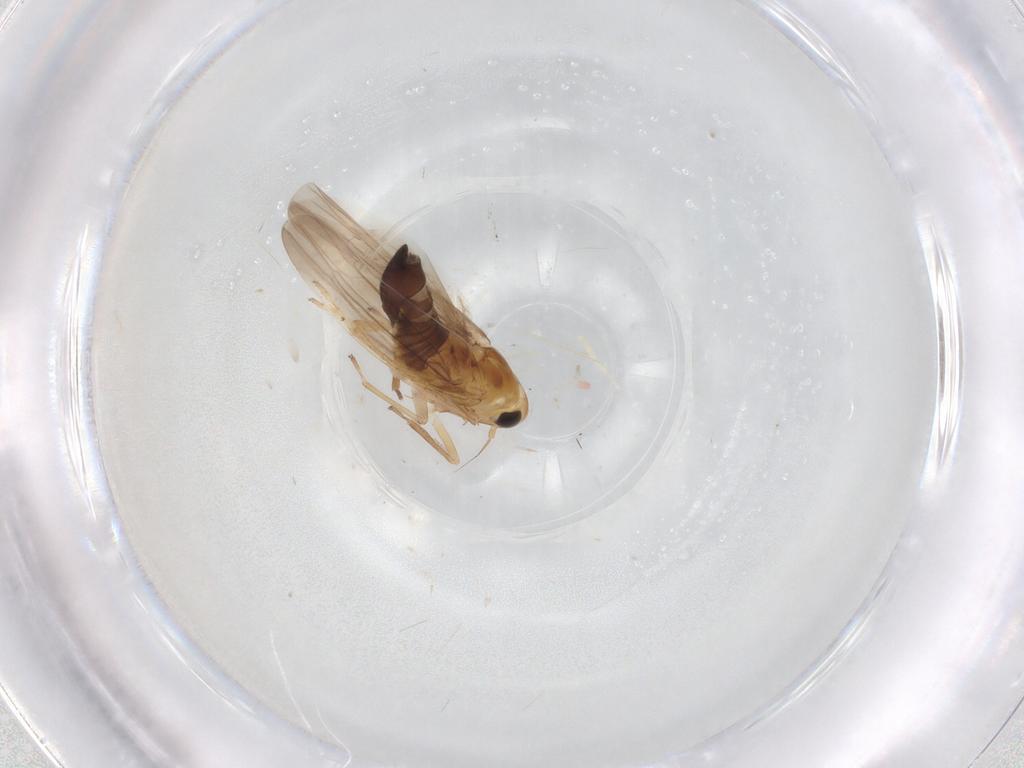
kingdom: Animalia
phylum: Arthropoda
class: Insecta
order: Hemiptera
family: Cicadellidae
